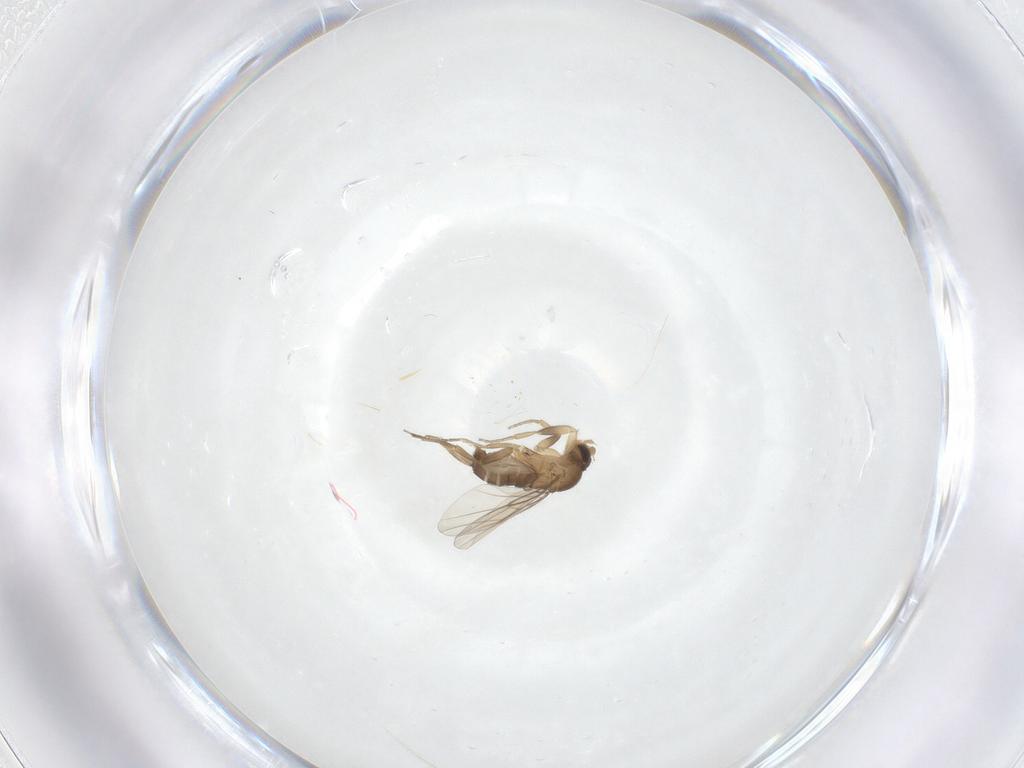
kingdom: Animalia
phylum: Arthropoda
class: Insecta
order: Diptera
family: Phoridae
